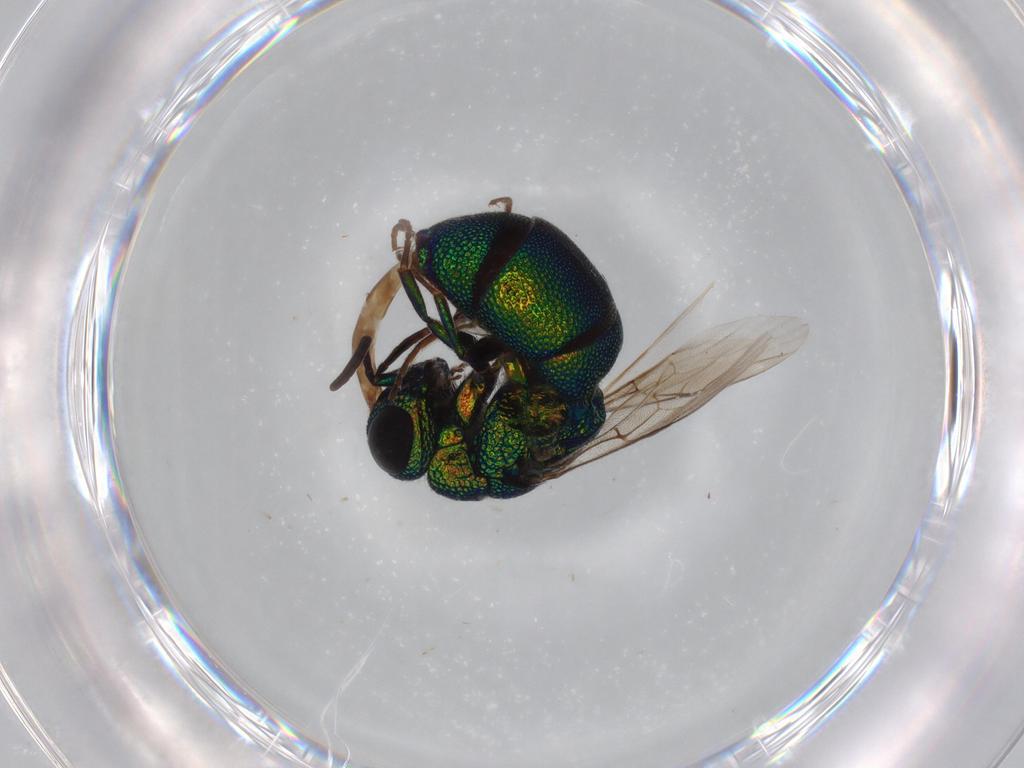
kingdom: Animalia
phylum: Arthropoda
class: Insecta
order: Hymenoptera
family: Chrysididae
